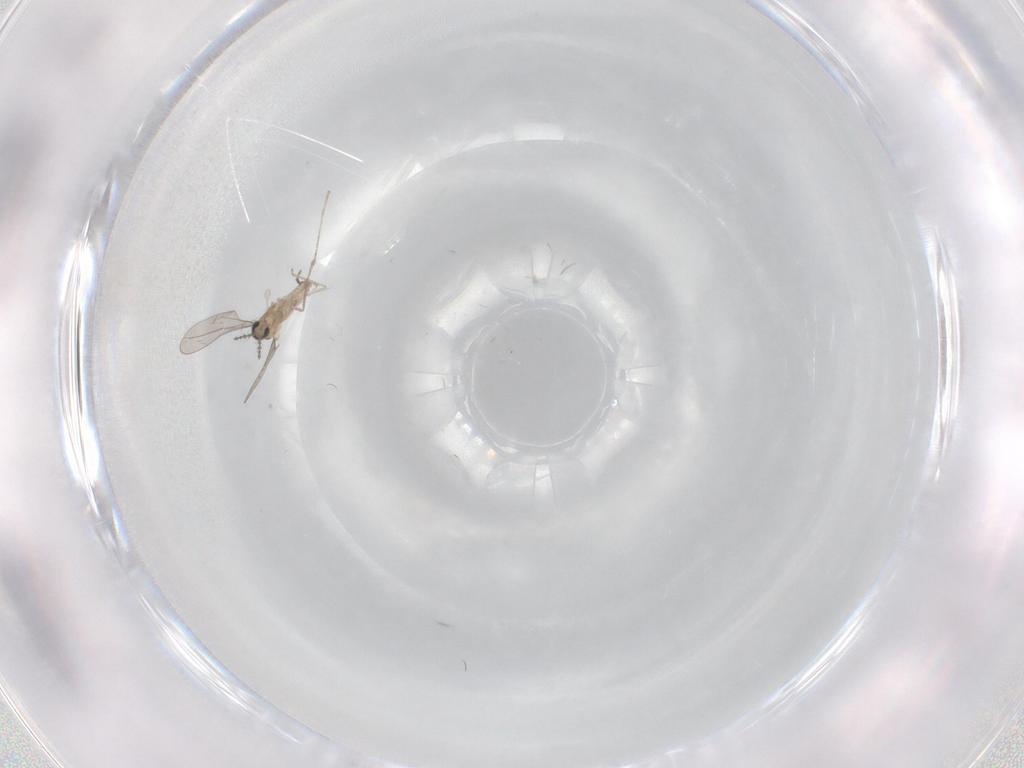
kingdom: Animalia
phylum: Arthropoda
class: Insecta
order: Diptera
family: Cecidomyiidae
